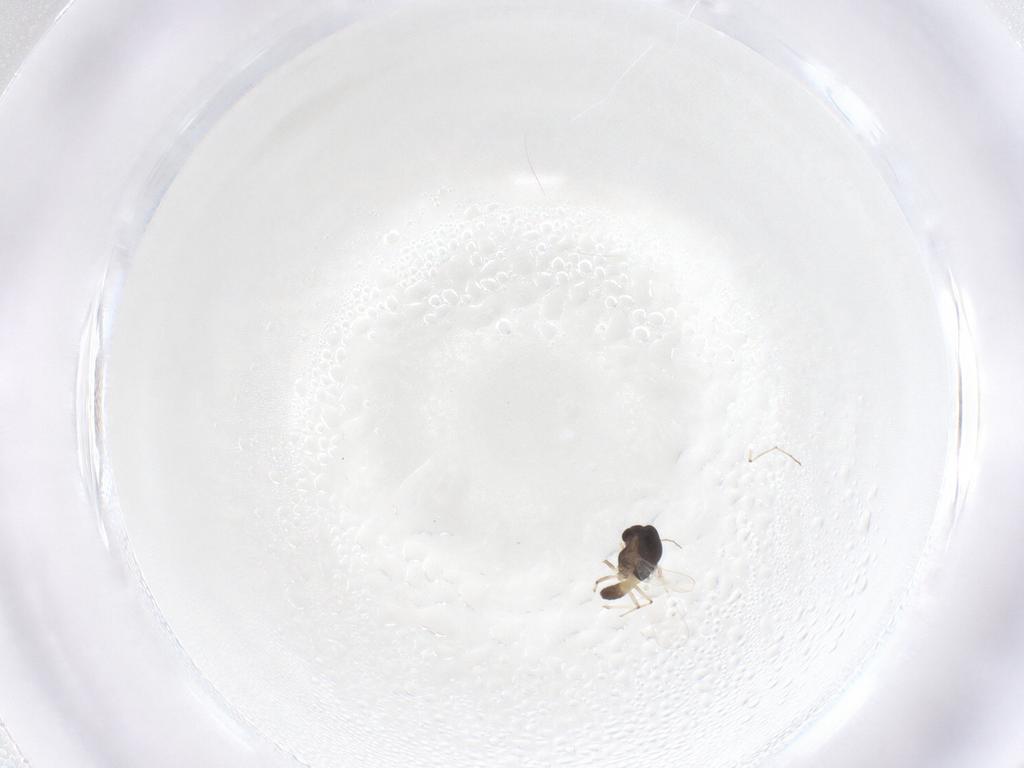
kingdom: Animalia
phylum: Arthropoda
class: Insecta
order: Diptera
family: Chironomidae
